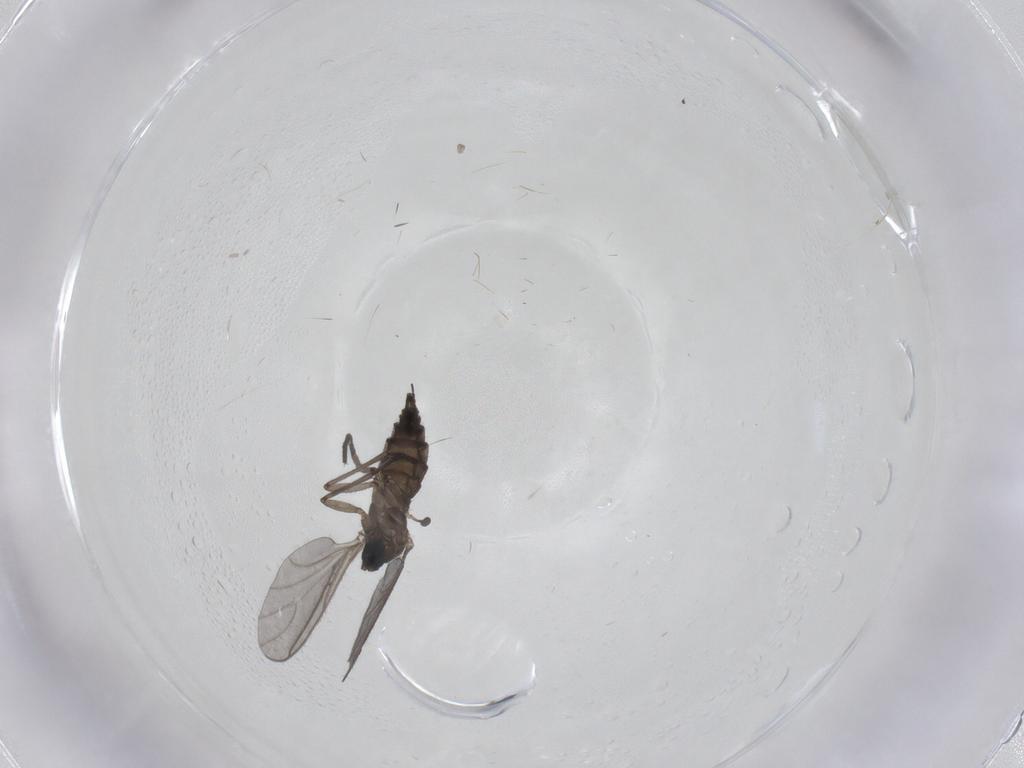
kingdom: Animalia
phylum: Arthropoda
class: Insecta
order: Diptera
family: Sciaridae
